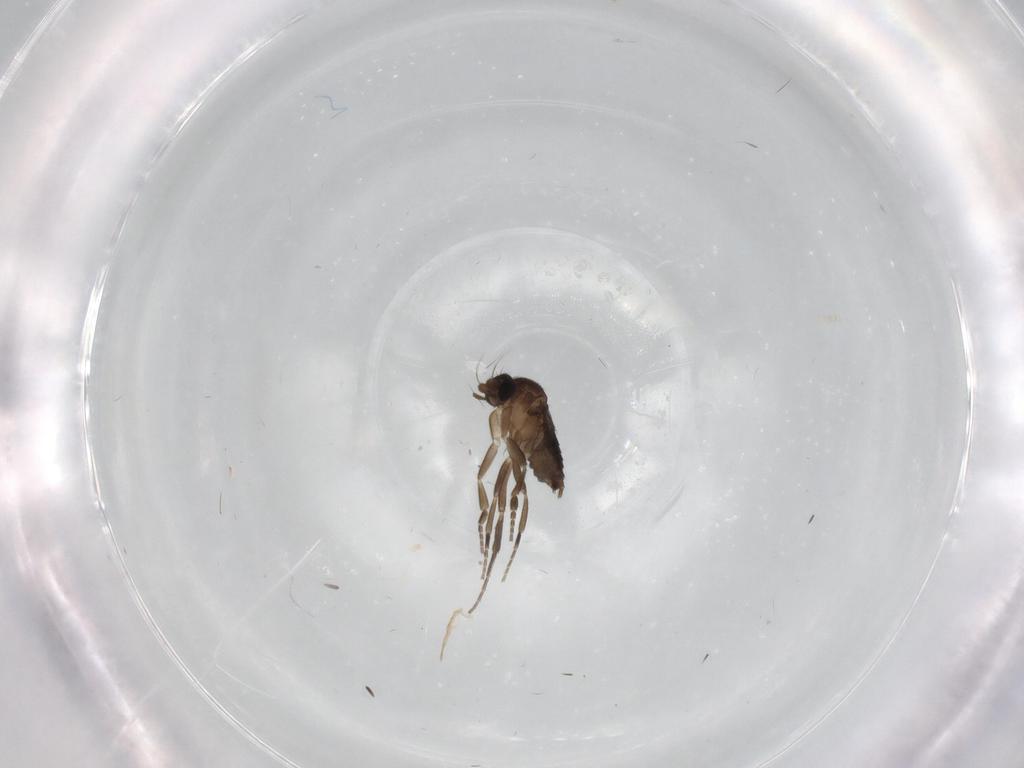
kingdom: Animalia
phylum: Arthropoda
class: Insecta
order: Diptera
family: Phoridae
